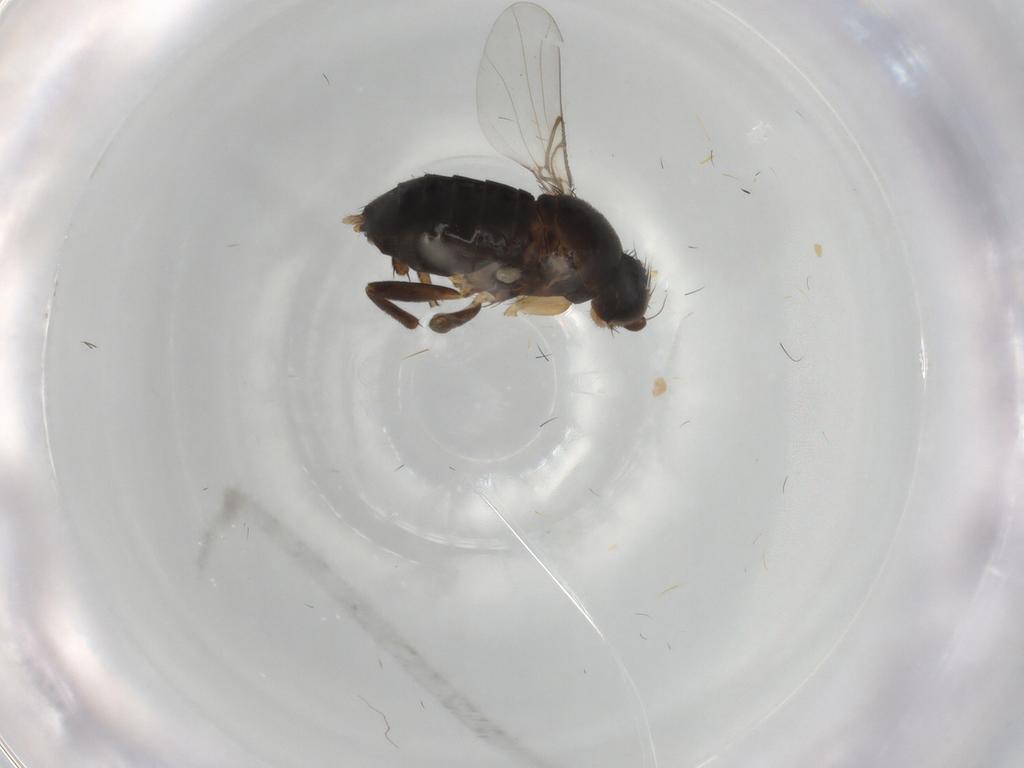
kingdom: Animalia
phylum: Arthropoda
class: Insecta
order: Diptera
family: Phoridae
